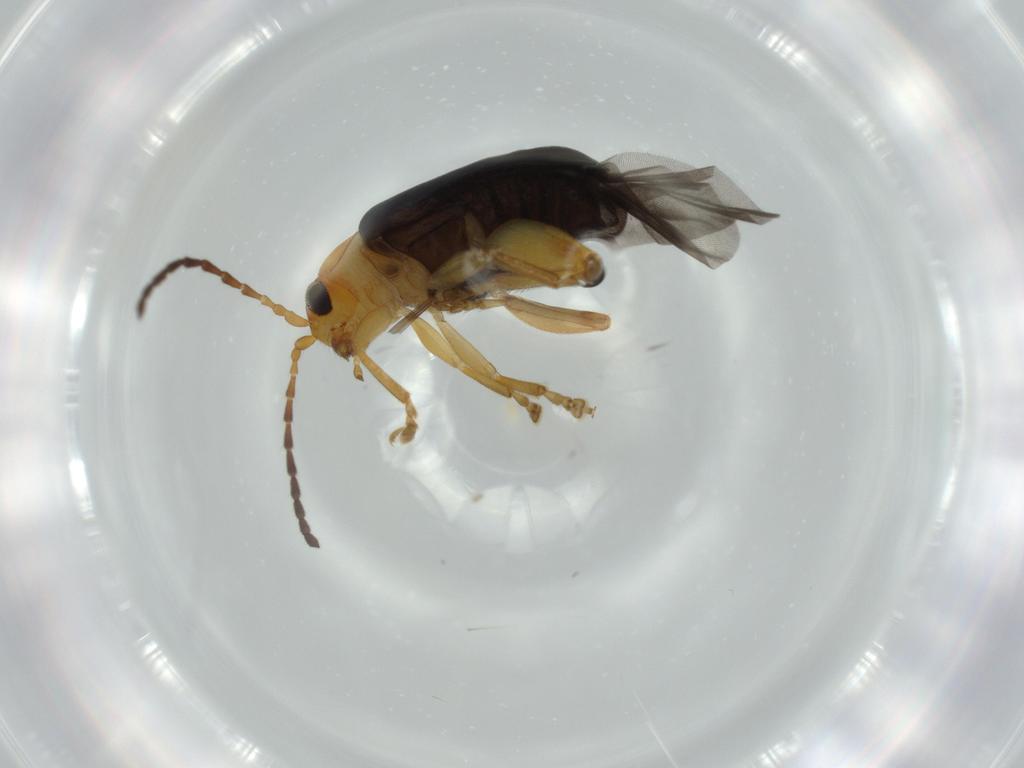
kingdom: Animalia
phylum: Arthropoda
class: Insecta
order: Coleoptera
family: Chrysomelidae
